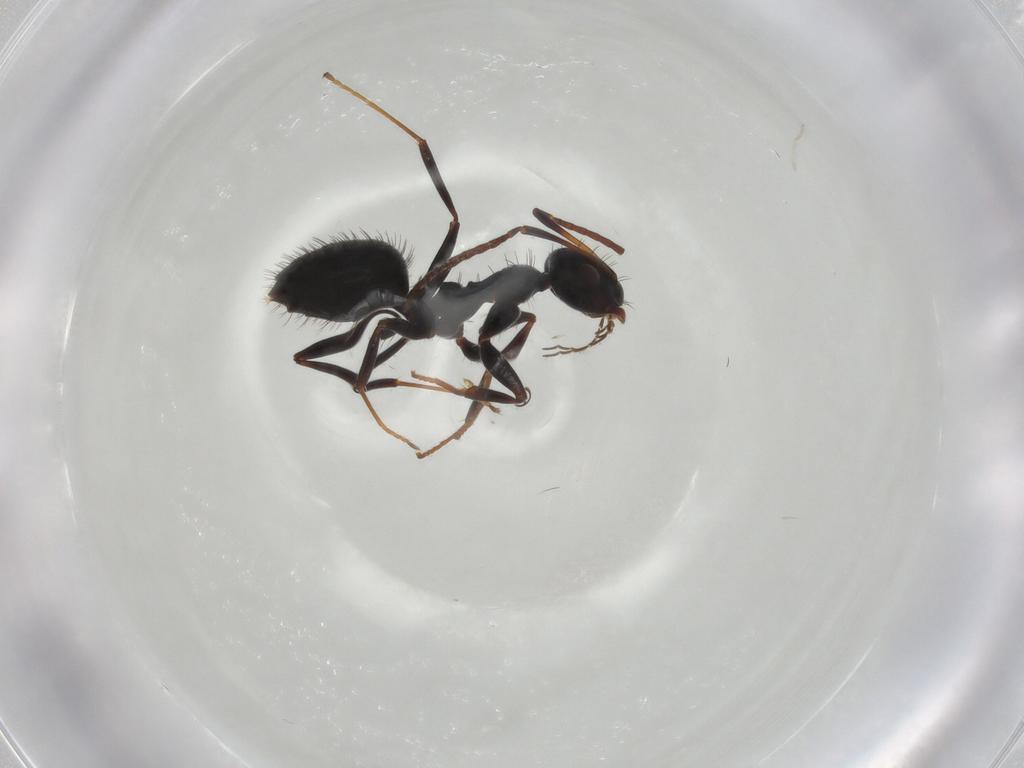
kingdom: Animalia
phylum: Arthropoda
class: Insecta
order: Hymenoptera
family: Formicidae
